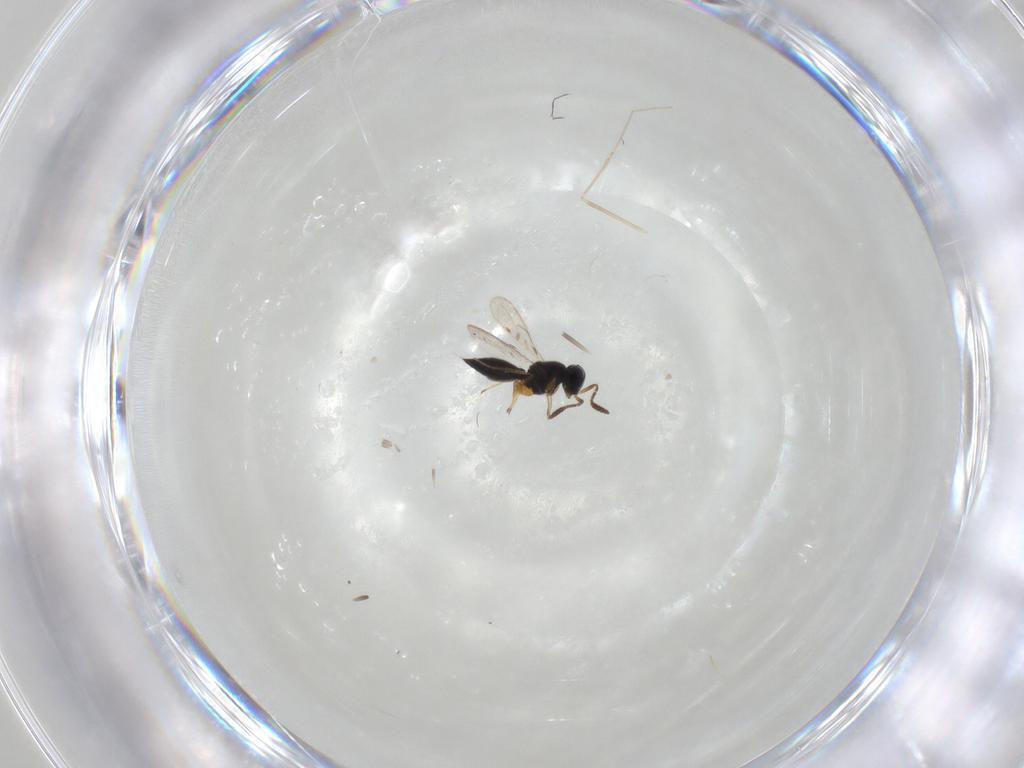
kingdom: Animalia
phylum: Arthropoda
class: Insecta
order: Hymenoptera
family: Scelionidae
